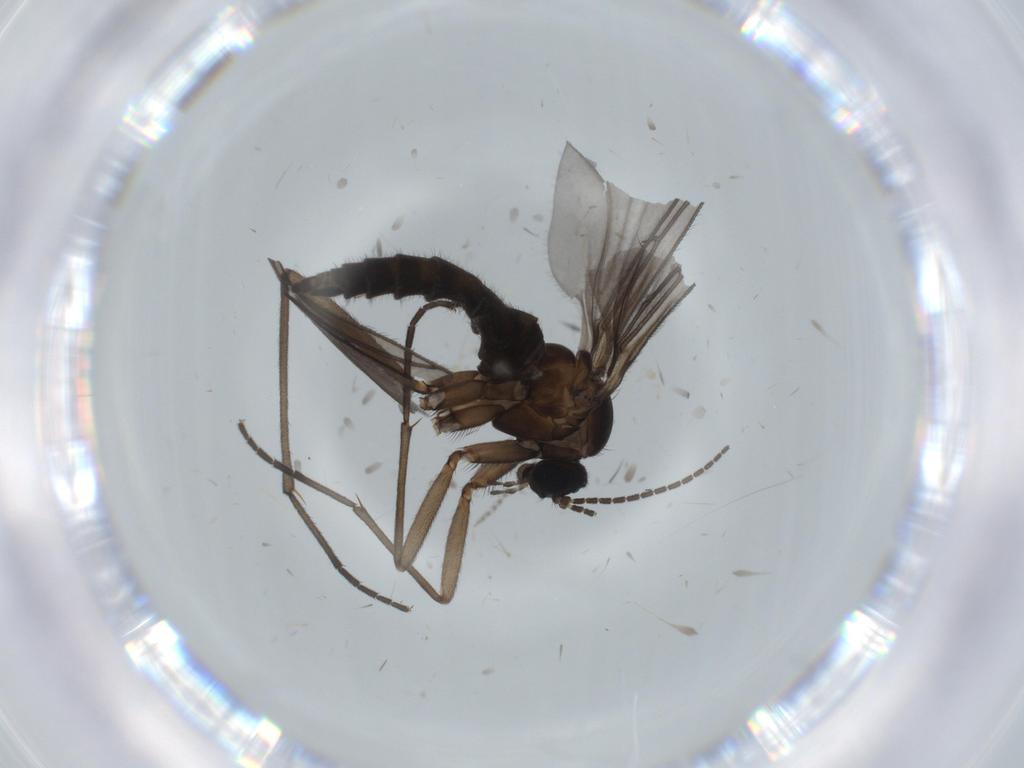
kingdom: Animalia
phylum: Arthropoda
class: Insecta
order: Diptera
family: Sciaridae
